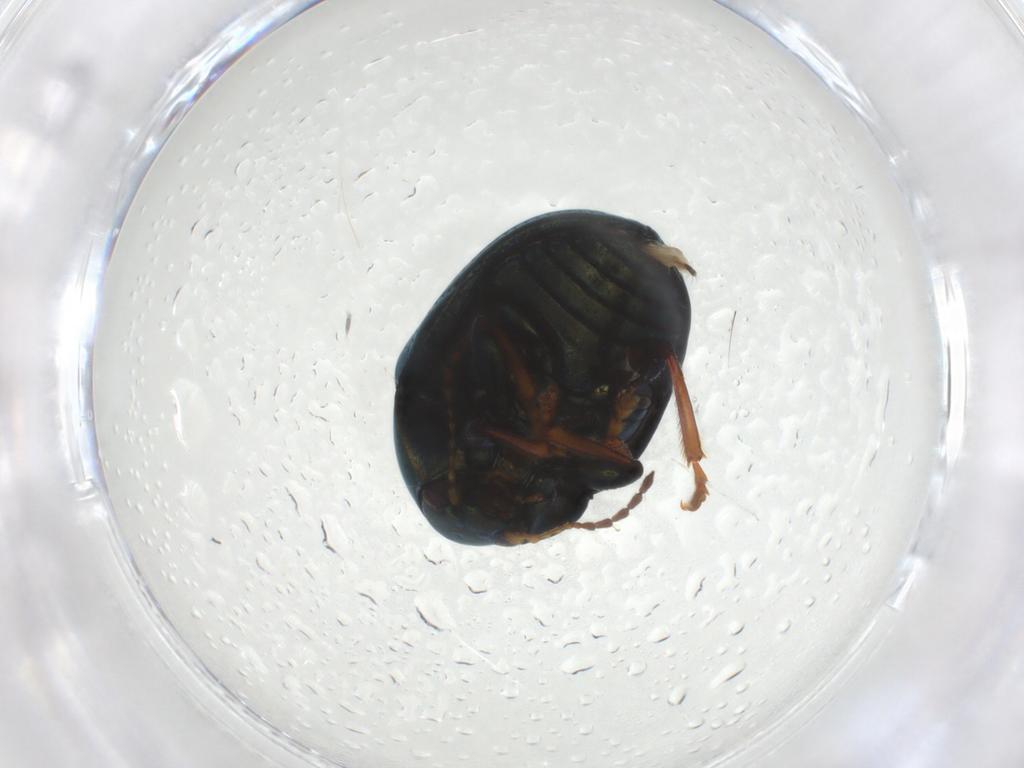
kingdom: Animalia
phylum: Arthropoda
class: Insecta
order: Coleoptera
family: Chrysomelidae
